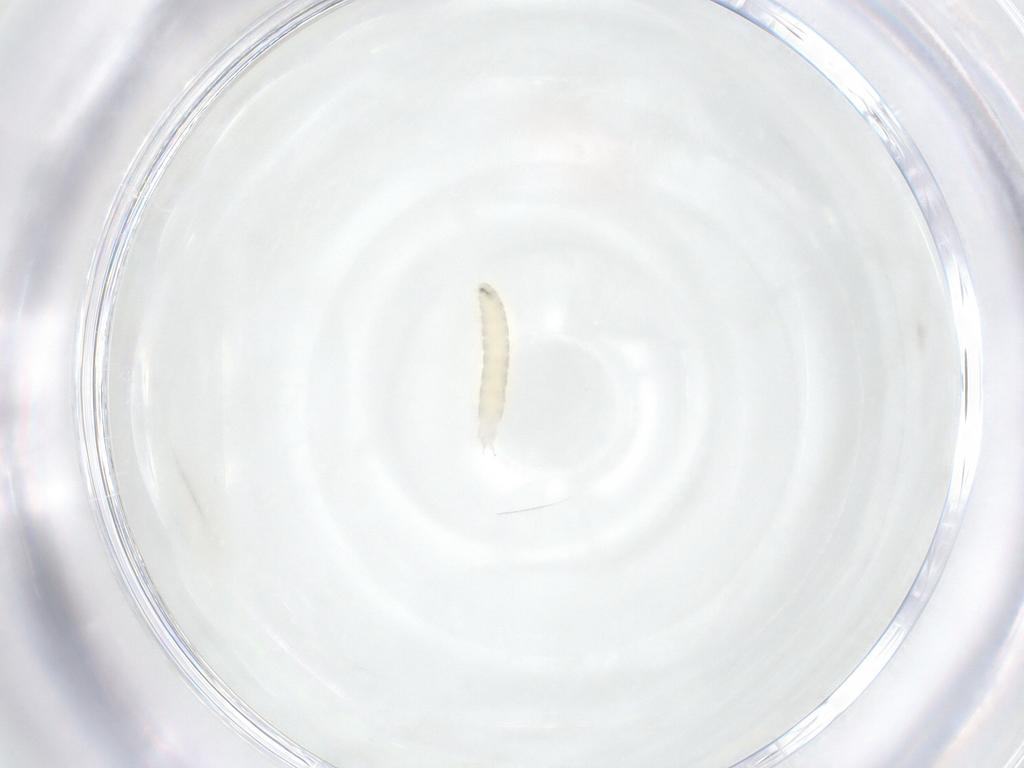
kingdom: Animalia
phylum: Arthropoda
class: Insecta
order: Diptera
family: Tachinidae
